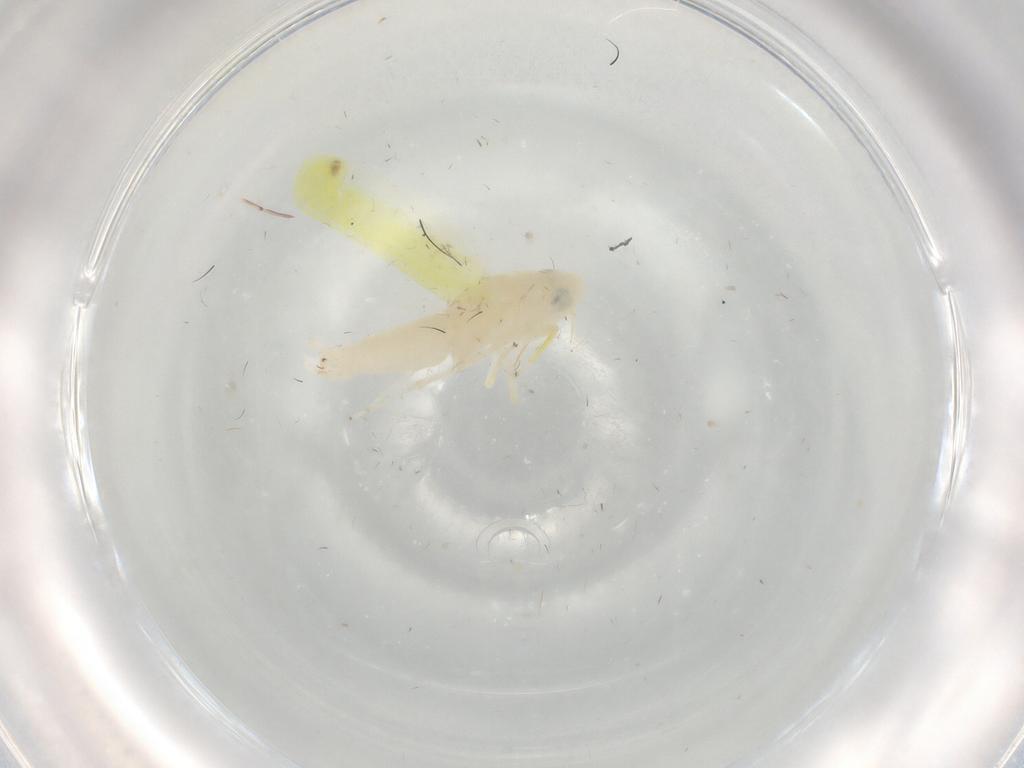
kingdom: Animalia
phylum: Arthropoda
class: Insecta
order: Hemiptera
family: Cicadellidae
